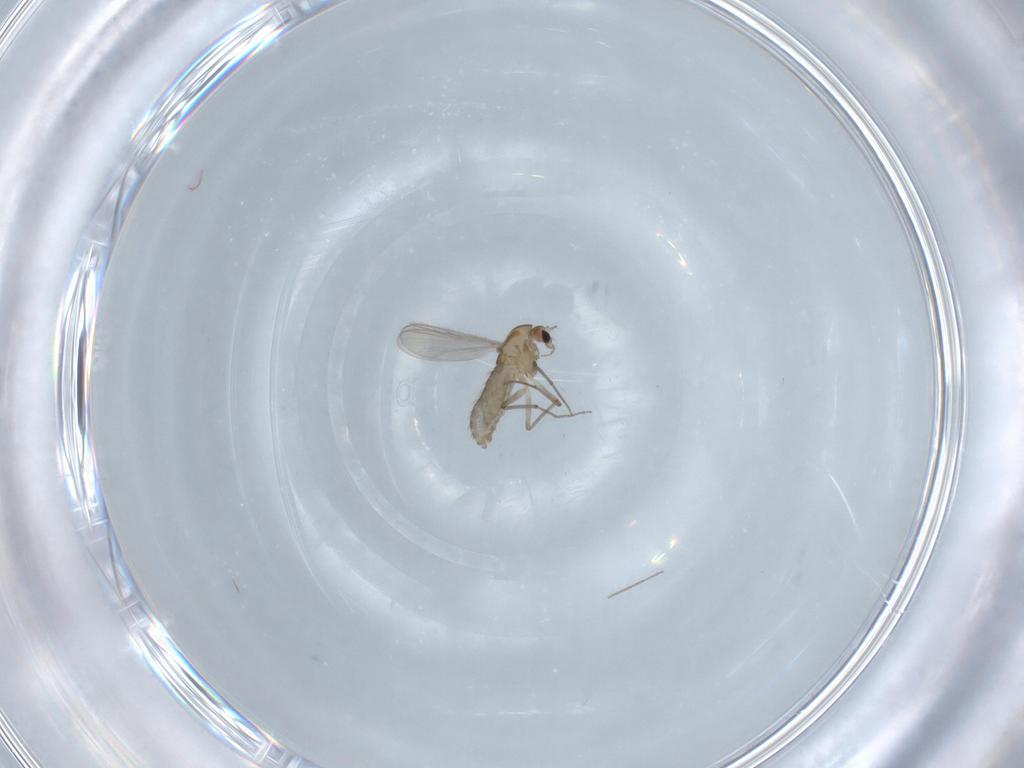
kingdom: Animalia
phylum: Arthropoda
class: Insecta
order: Diptera
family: Chironomidae
